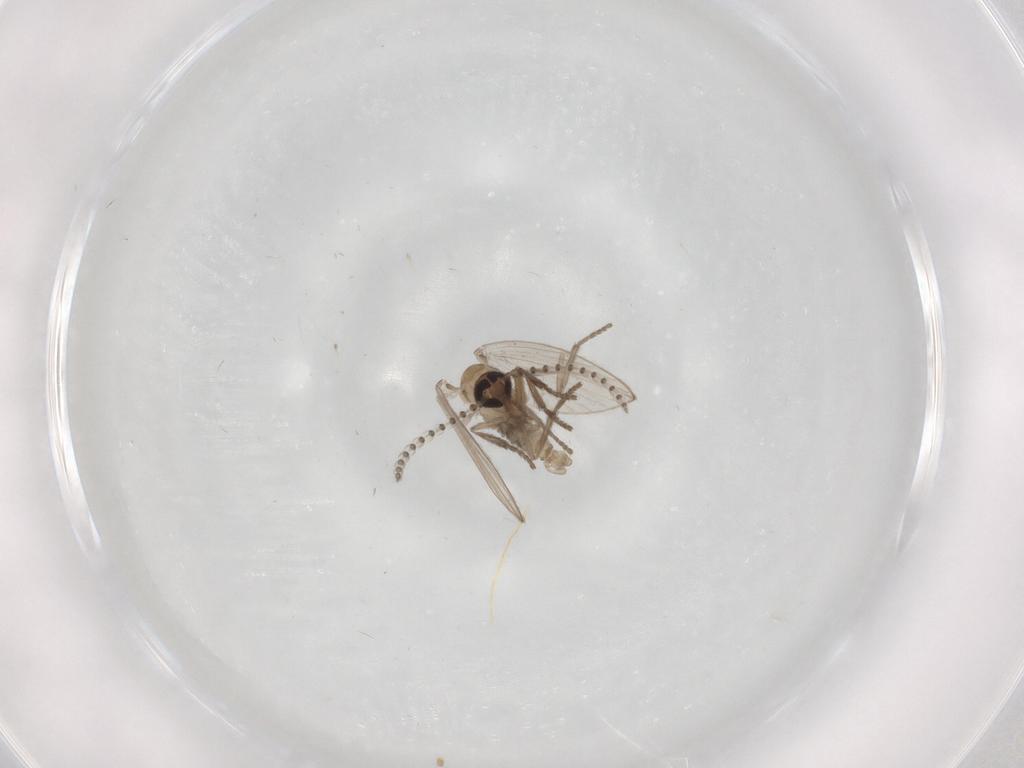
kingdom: Animalia
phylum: Arthropoda
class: Insecta
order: Diptera
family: Psychodidae
